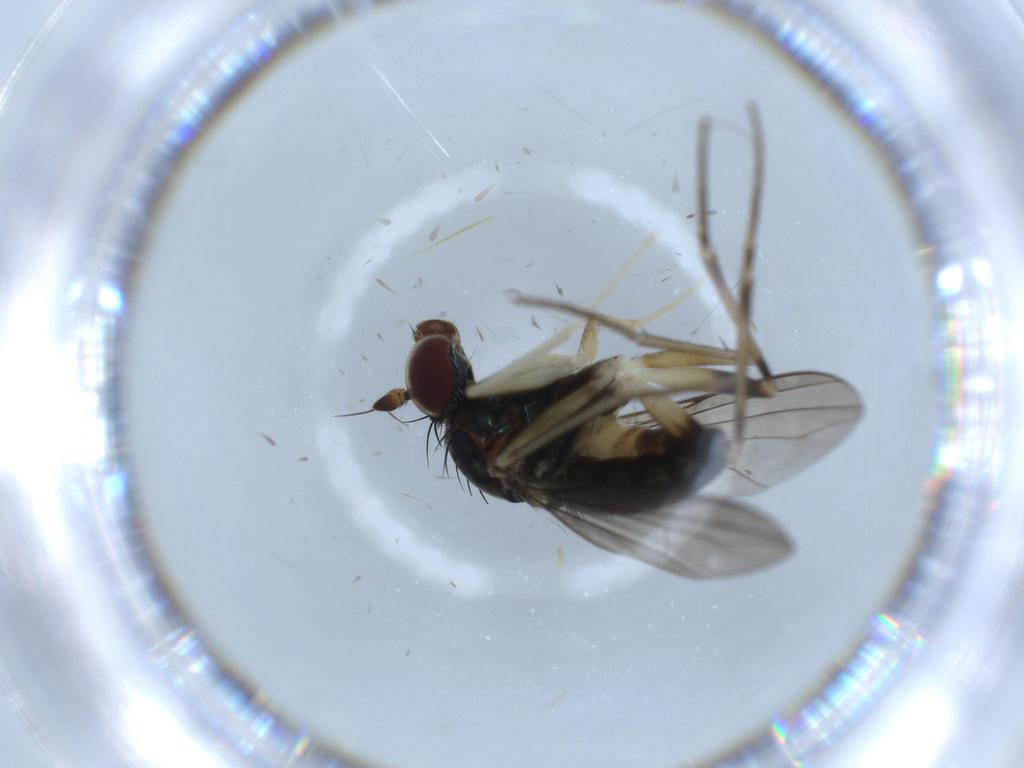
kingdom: Animalia
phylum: Arthropoda
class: Insecta
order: Diptera
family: Dolichopodidae
